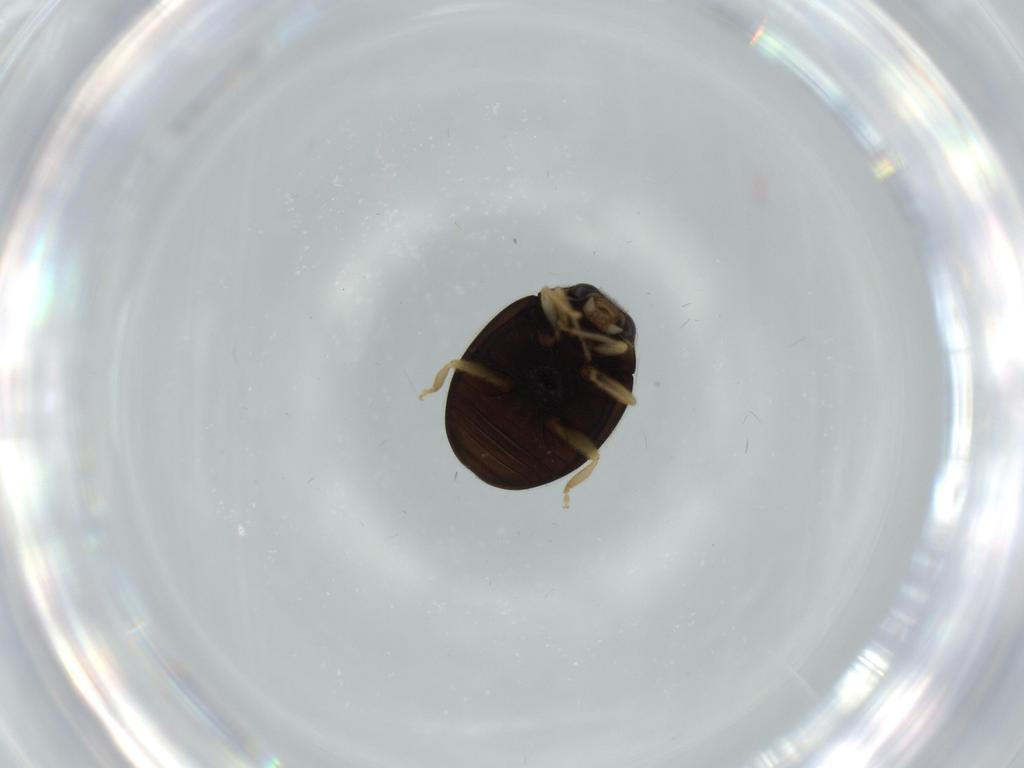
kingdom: Animalia
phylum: Arthropoda
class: Insecta
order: Coleoptera
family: Coccinellidae
